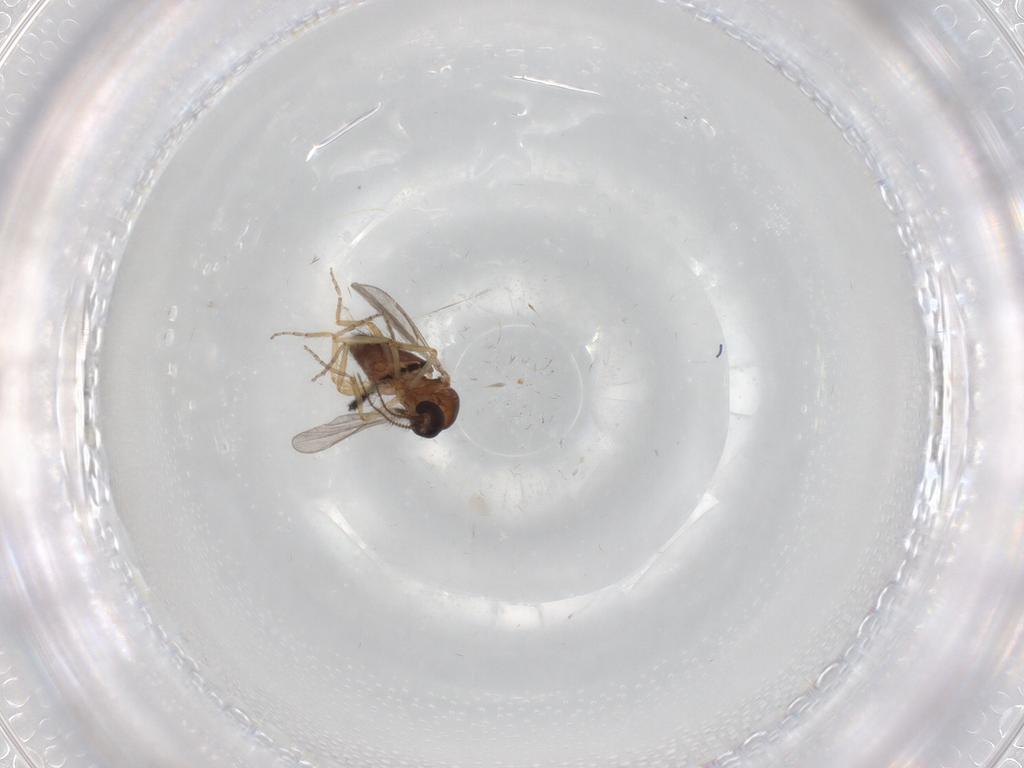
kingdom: Animalia
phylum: Arthropoda
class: Insecta
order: Diptera
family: Ceratopogonidae
